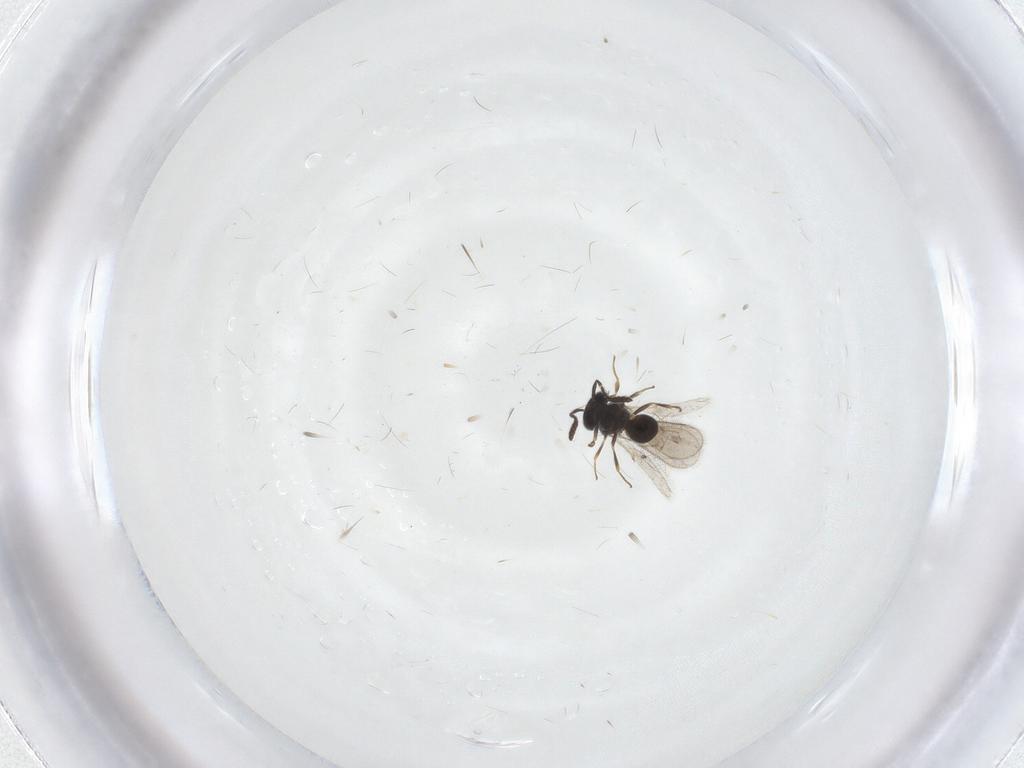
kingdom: Animalia
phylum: Arthropoda
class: Insecta
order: Hymenoptera
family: Scelionidae
